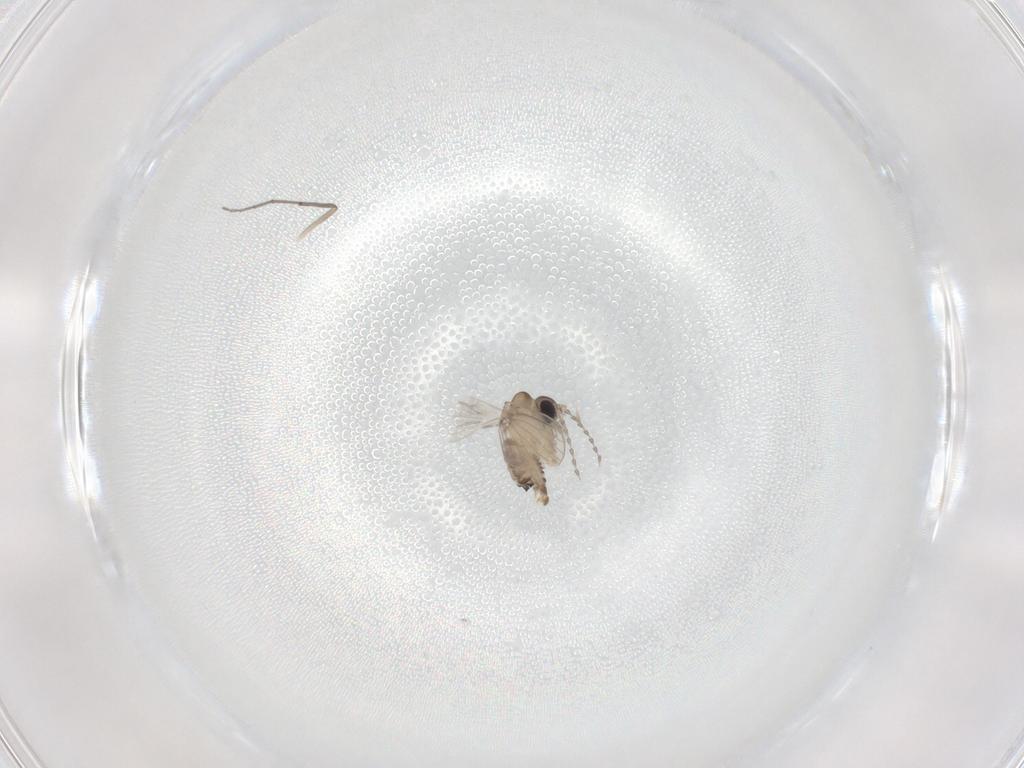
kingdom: Animalia
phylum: Arthropoda
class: Insecta
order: Diptera
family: Chironomidae
